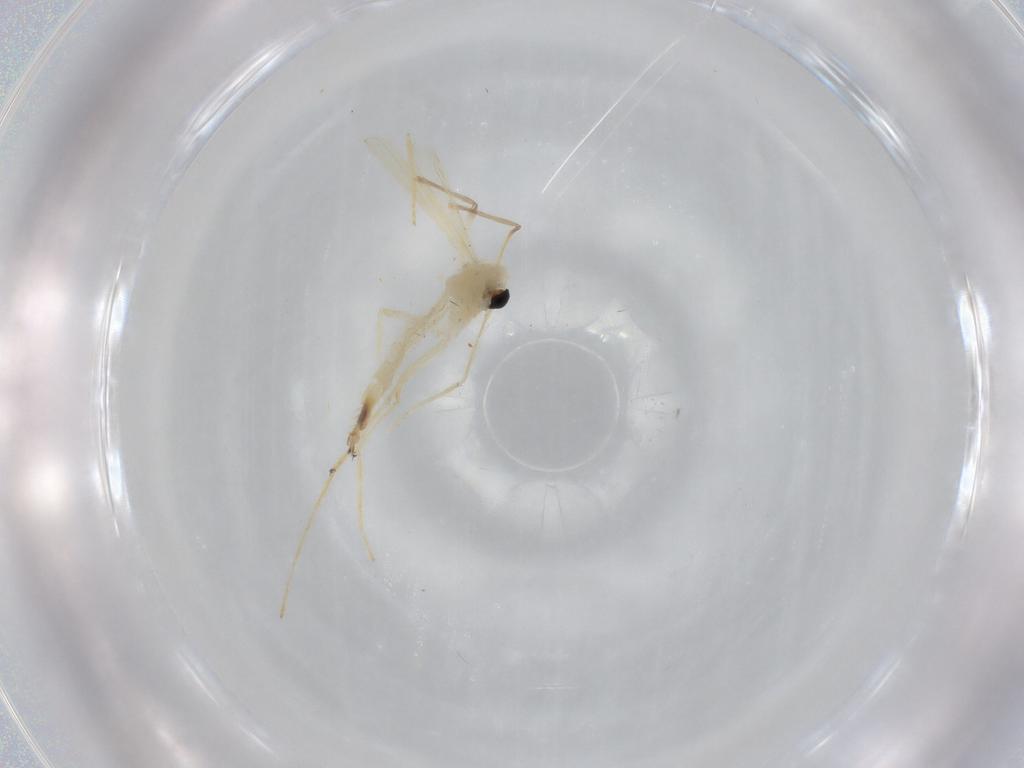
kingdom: Animalia
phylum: Arthropoda
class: Insecta
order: Diptera
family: Chironomidae
